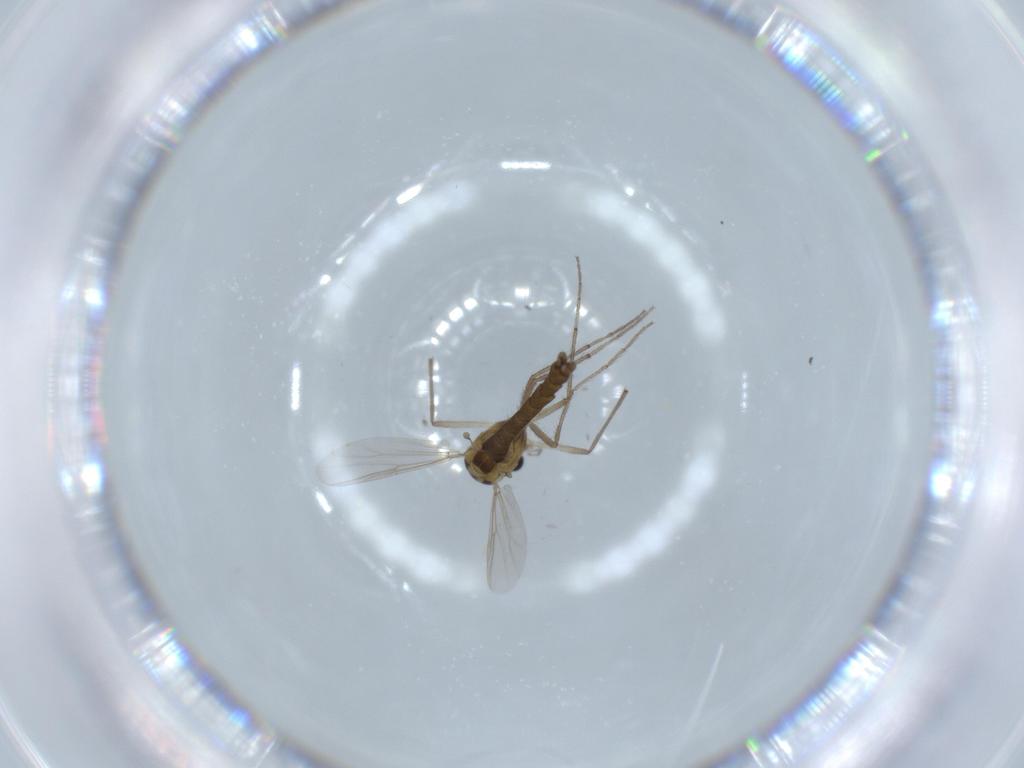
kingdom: Animalia
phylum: Arthropoda
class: Insecta
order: Diptera
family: Chironomidae
